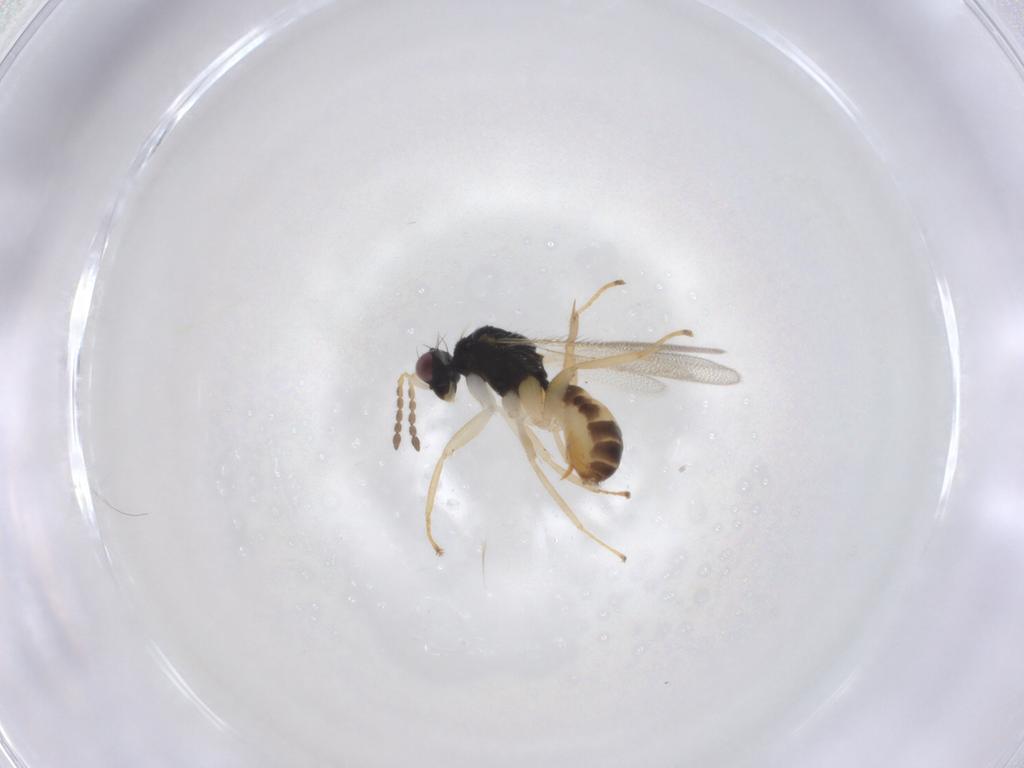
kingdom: Animalia
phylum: Arthropoda
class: Insecta
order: Hymenoptera
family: Eulophidae
